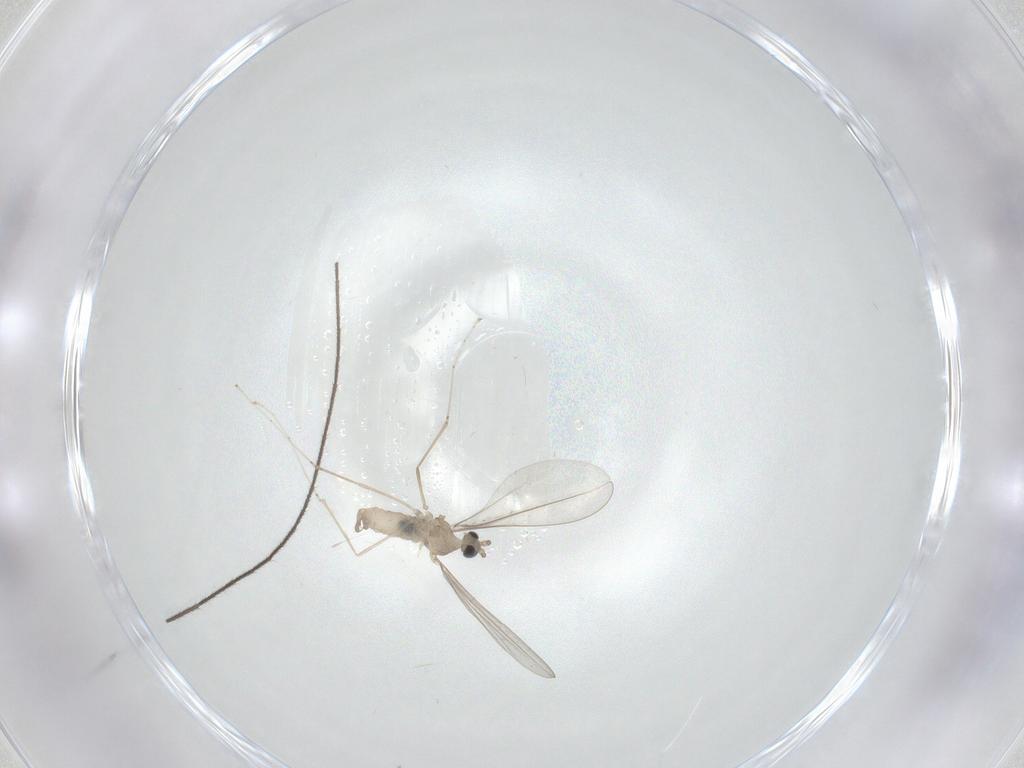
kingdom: Animalia
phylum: Arthropoda
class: Insecta
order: Diptera
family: Cecidomyiidae
